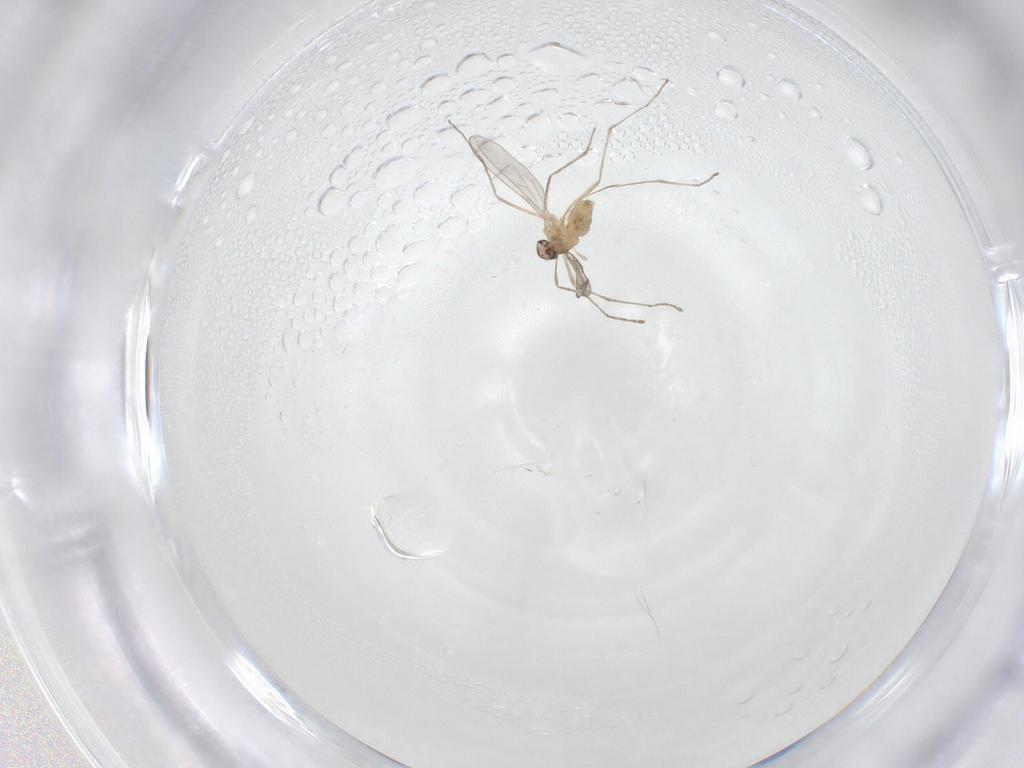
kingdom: Animalia
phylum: Arthropoda
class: Insecta
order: Diptera
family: Cecidomyiidae
